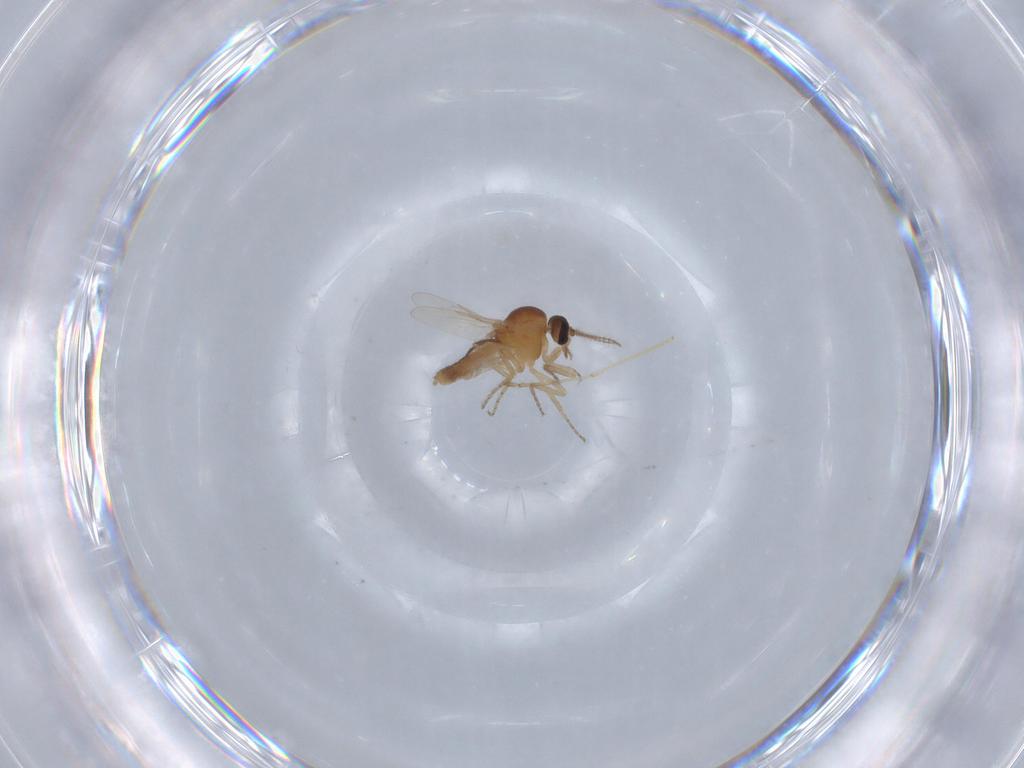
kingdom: Animalia
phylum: Arthropoda
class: Insecta
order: Diptera
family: Ceratopogonidae
